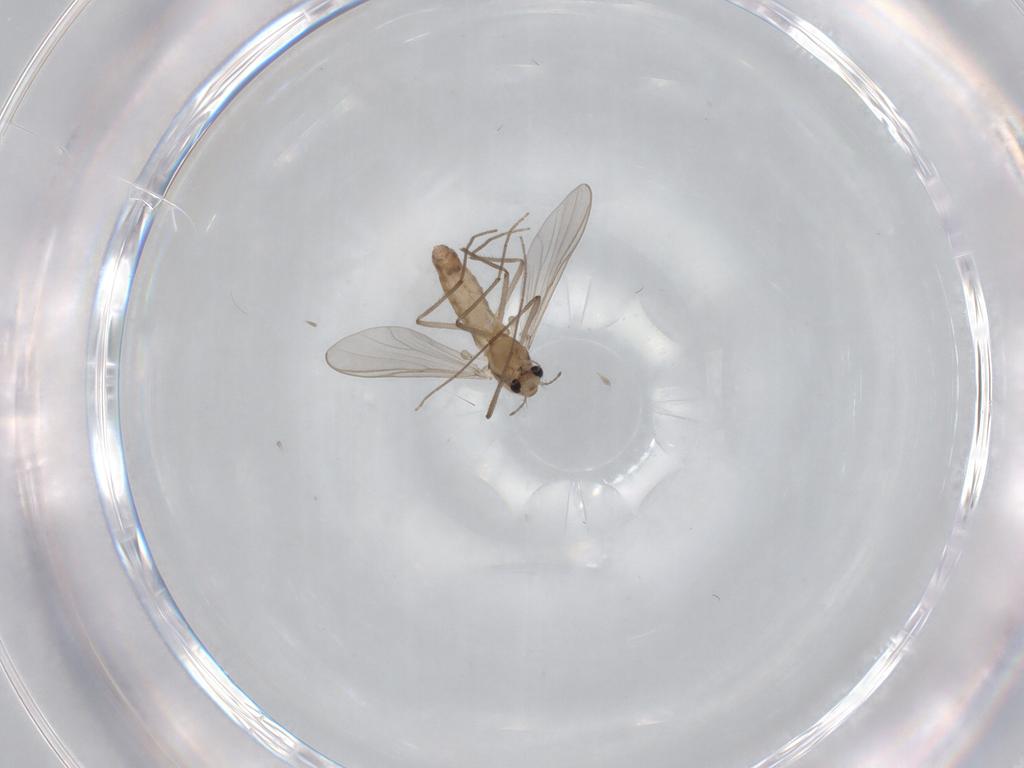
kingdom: Animalia
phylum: Arthropoda
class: Insecta
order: Diptera
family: Chironomidae
